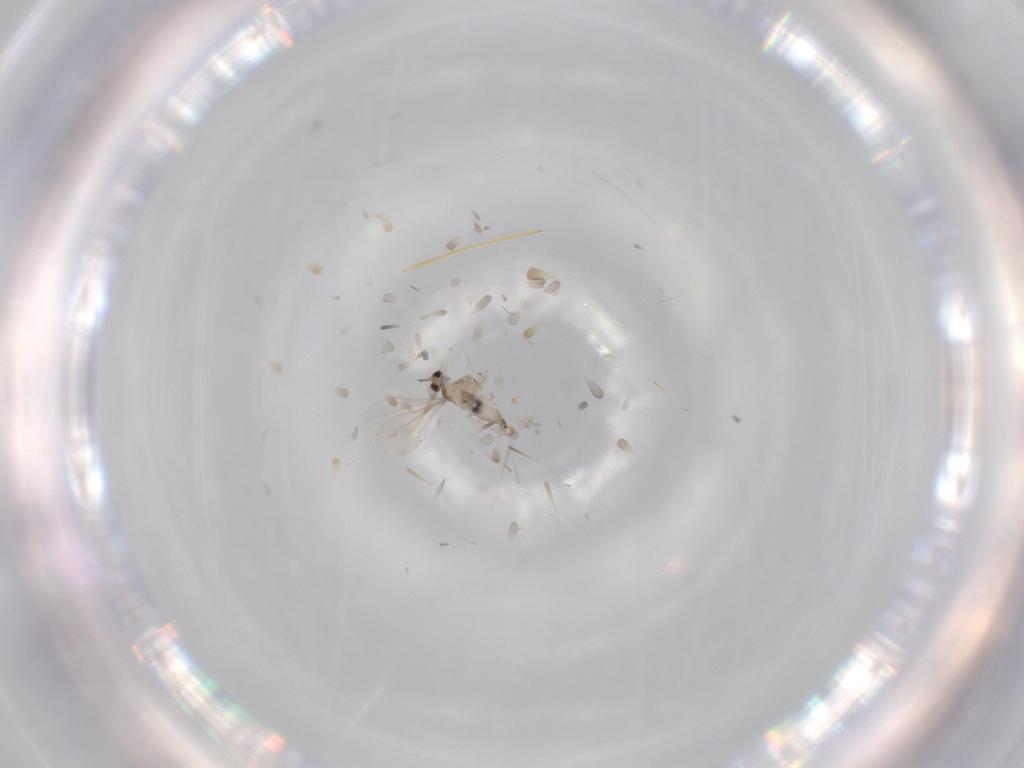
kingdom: Animalia
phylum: Arthropoda
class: Insecta
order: Diptera
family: Cecidomyiidae
